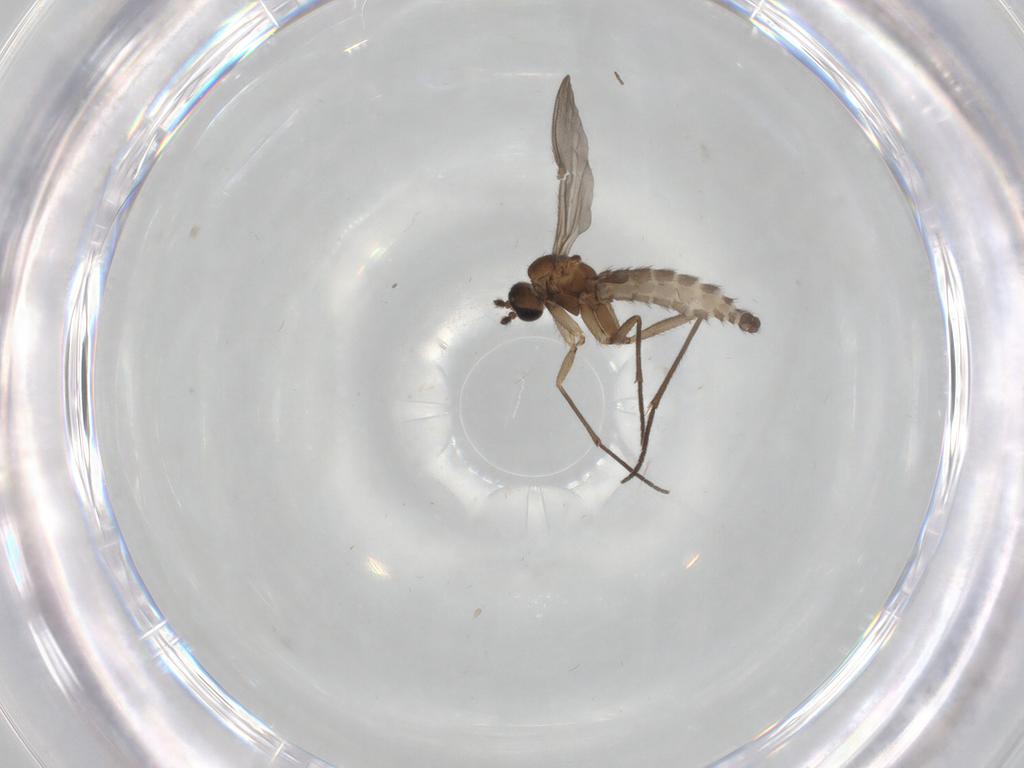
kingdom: Animalia
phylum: Arthropoda
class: Insecta
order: Diptera
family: Sciaridae
